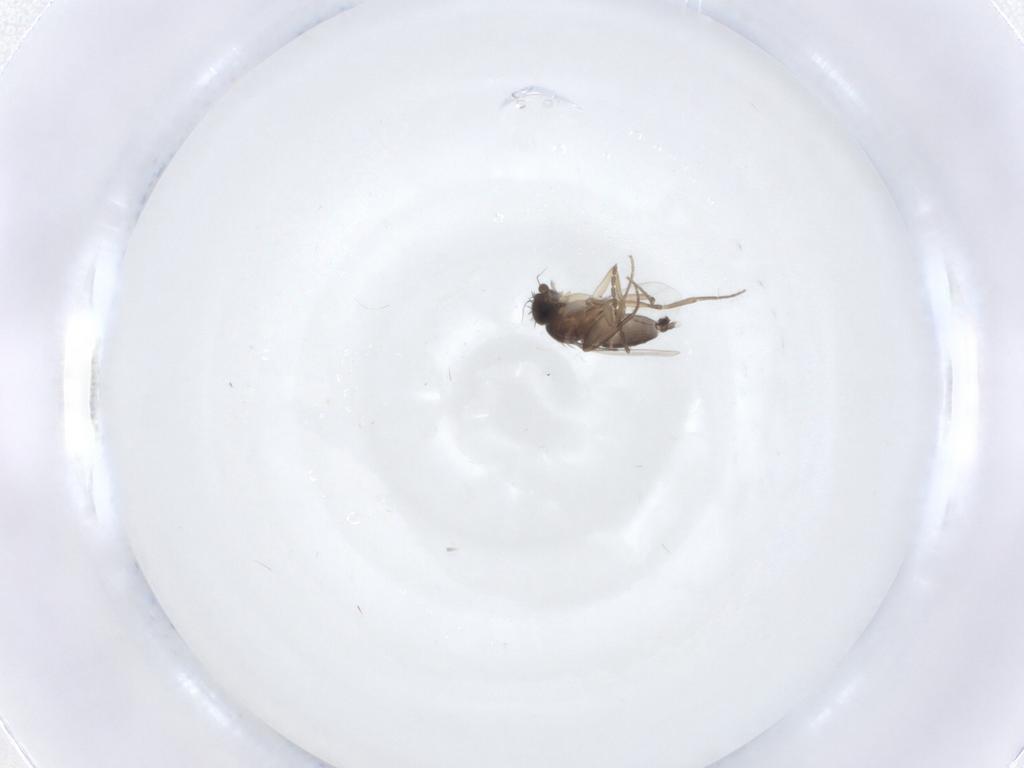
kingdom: Animalia
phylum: Arthropoda
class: Insecta
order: Diptera
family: Phoridae
